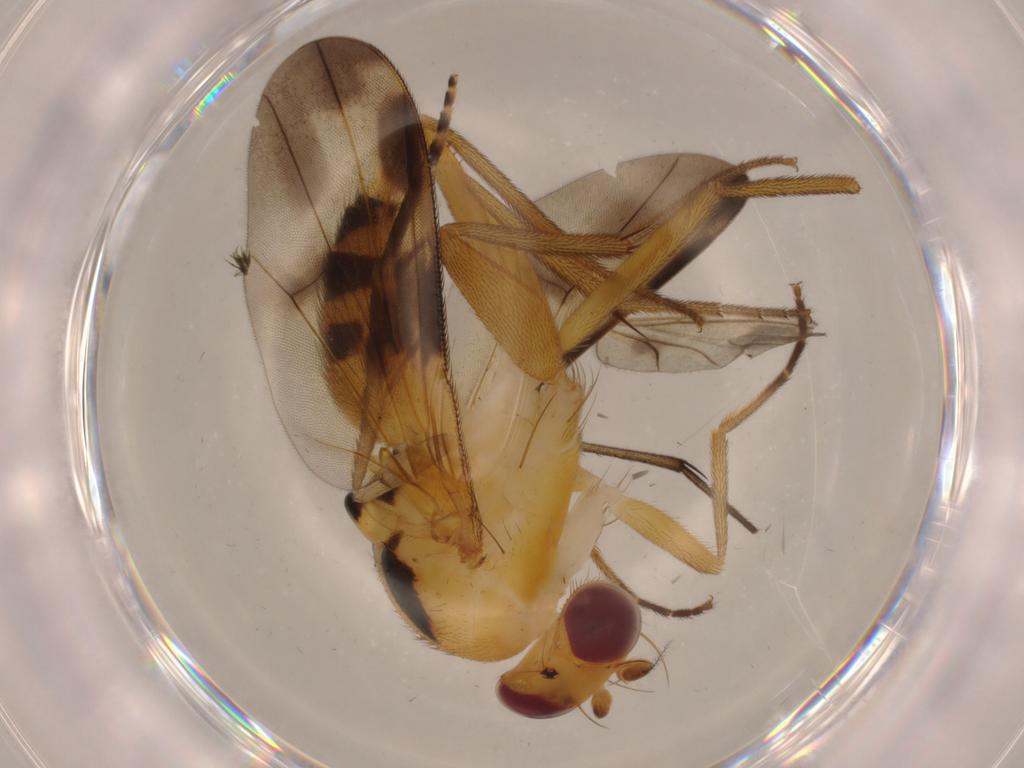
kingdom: Animalia
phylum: Arthropoda
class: Insecta
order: Diptera
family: Clusiidae
